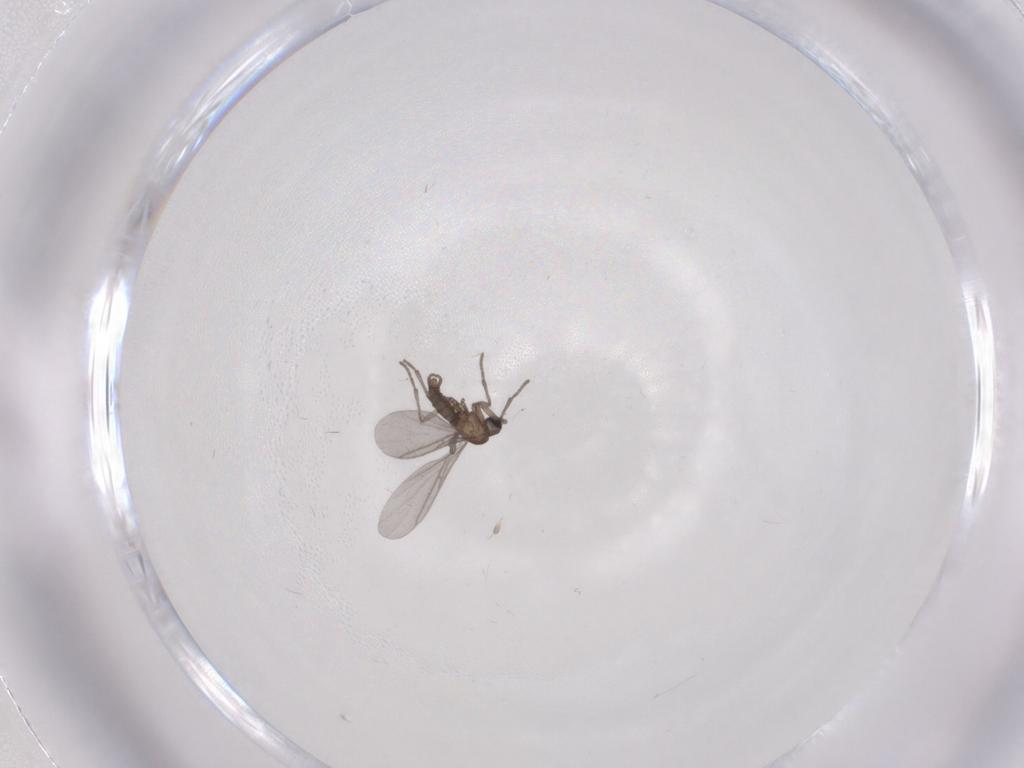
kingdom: Animalia
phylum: Arthropoda
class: Insecta
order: Diptera
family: Sciaridae
